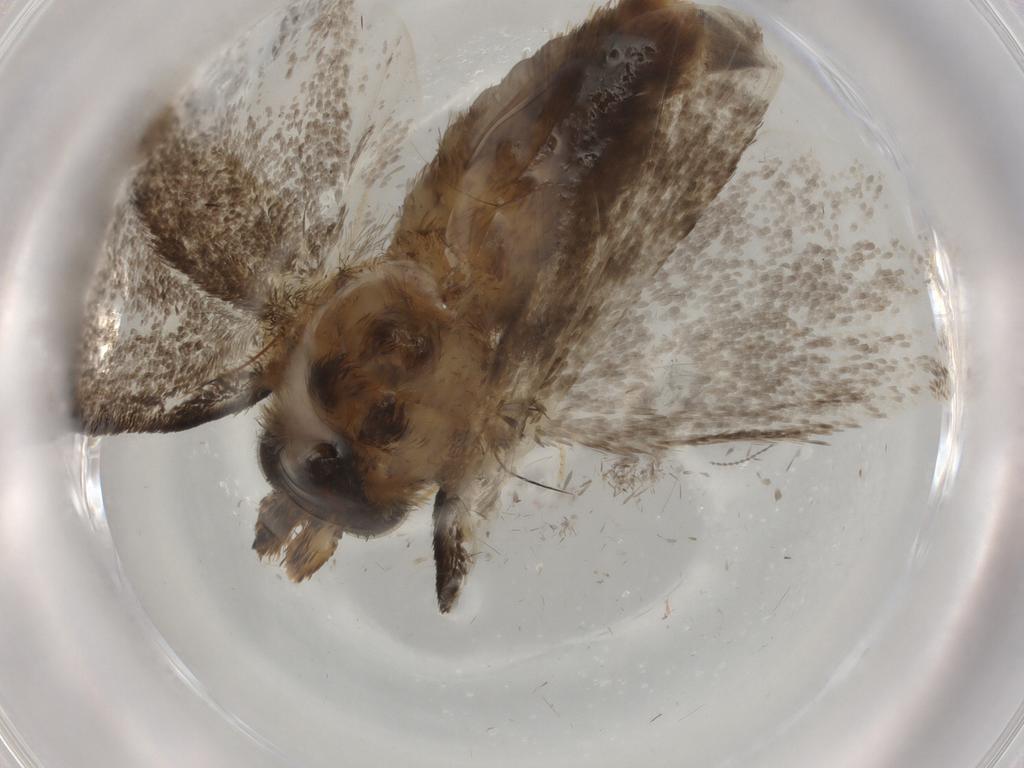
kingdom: Animalia
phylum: Arthropoda
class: Insecta
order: Lepidoptera
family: Tineidae
